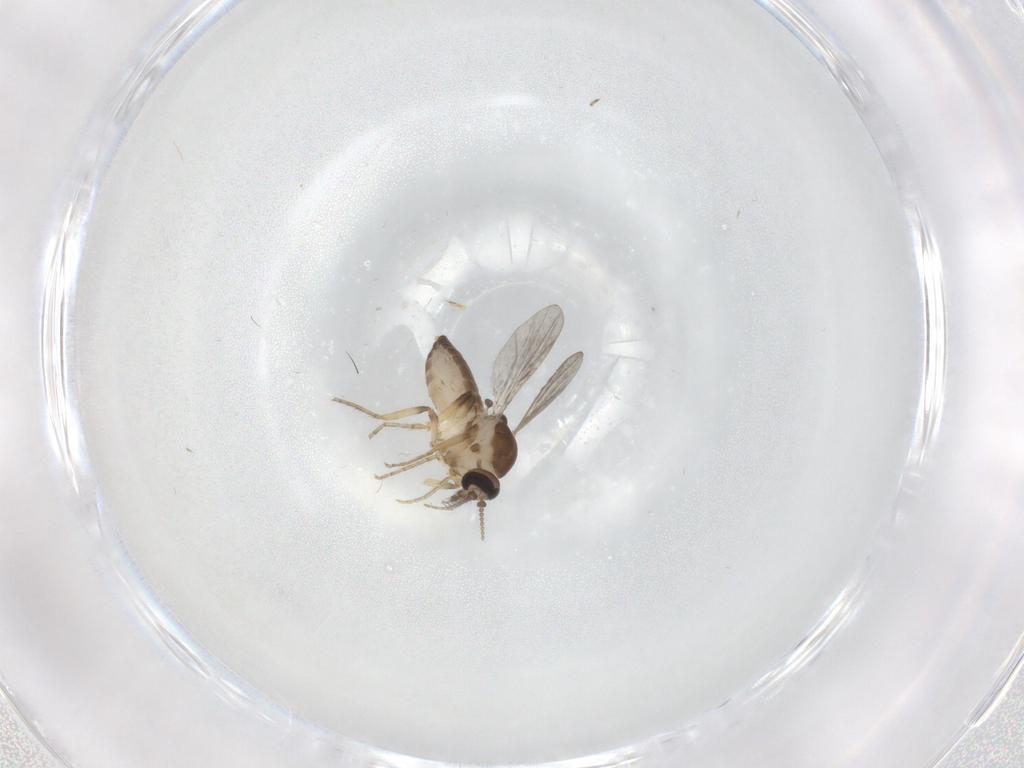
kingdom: Animalia
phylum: Arthropoda
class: Insecta
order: Diptera
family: Ceratopogonidae
